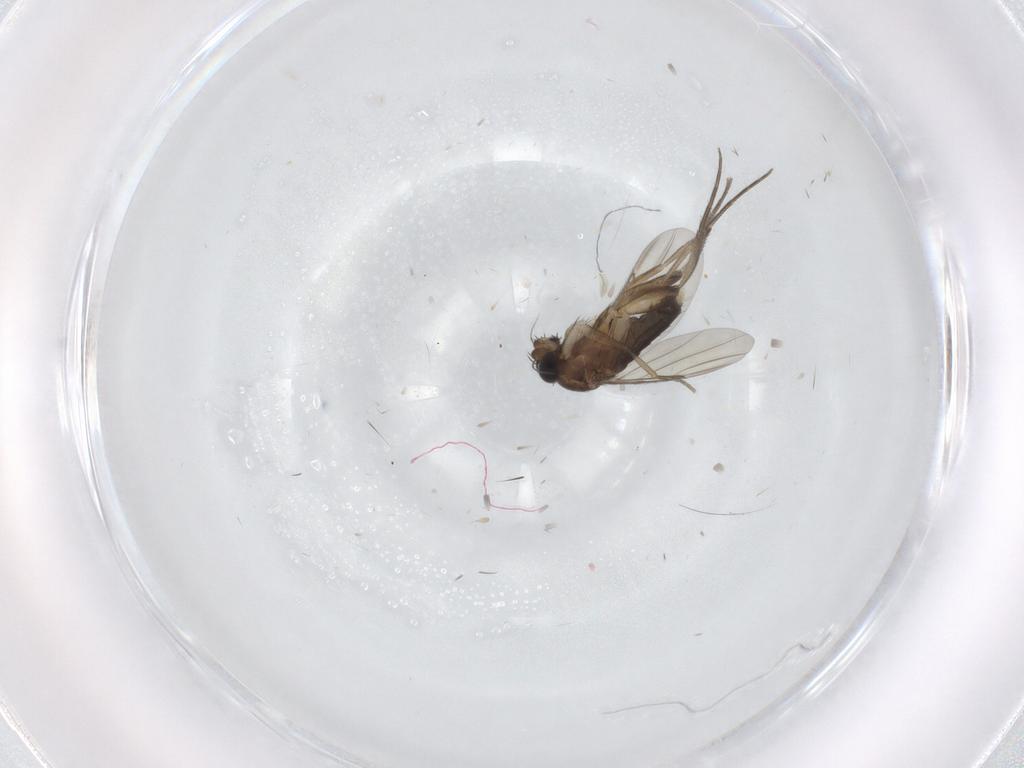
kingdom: Animalia
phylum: Arthropoda
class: Insecta
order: Diptera
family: Phoridae
